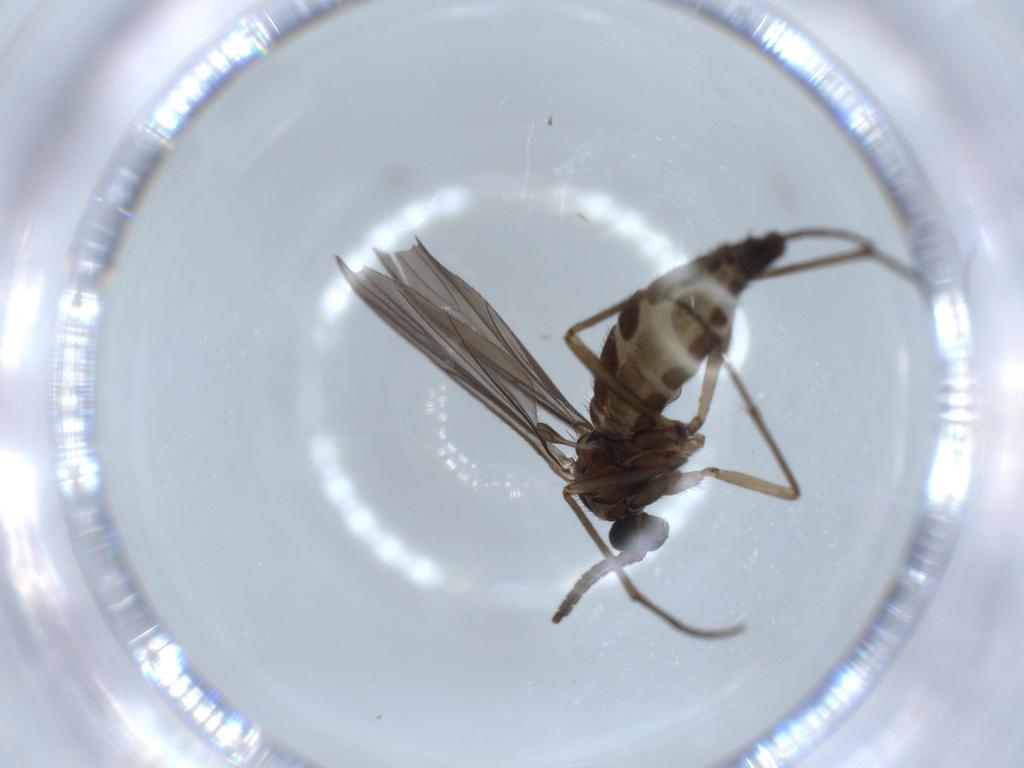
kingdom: Animalia
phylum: Arthropoda
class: Insecta
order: Diptera
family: Sciaridae
